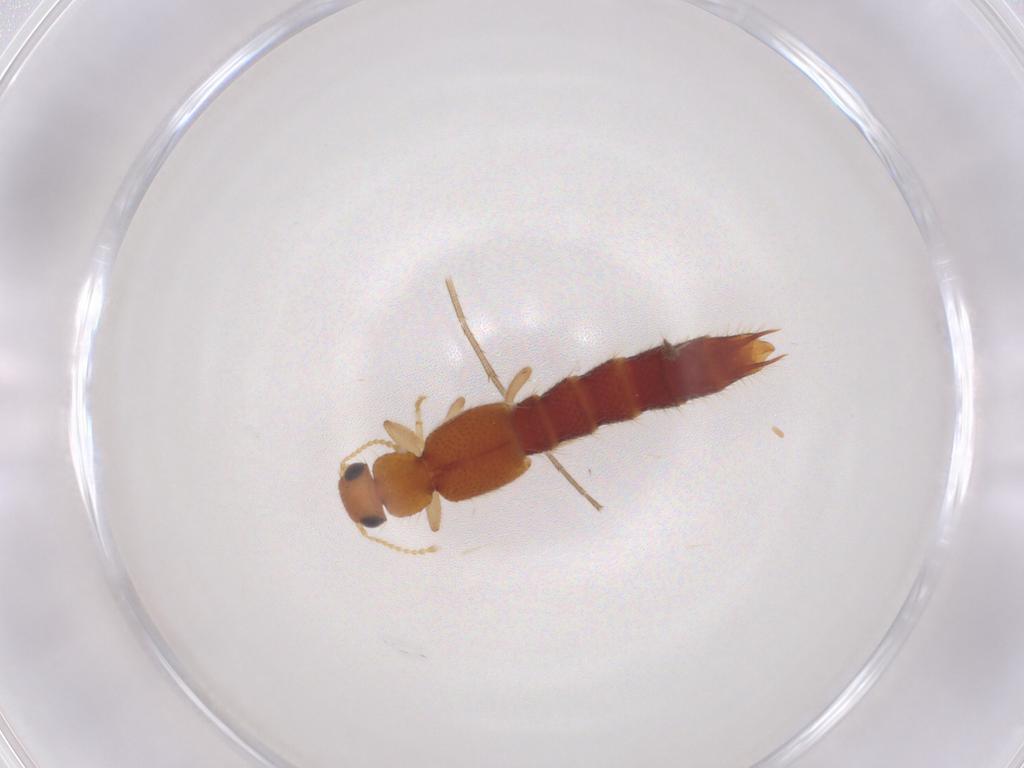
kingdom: Animalia
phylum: Arthropoda
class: Insecta
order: Coleoptera
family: Staphylinidae
